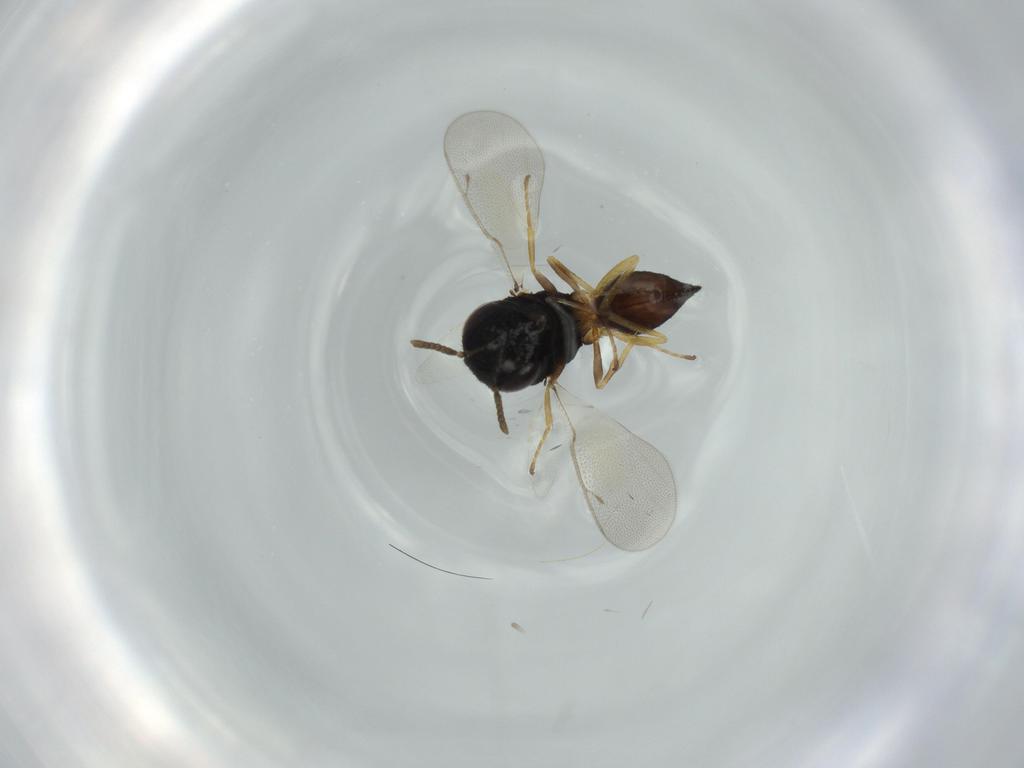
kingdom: Animalia
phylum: Arthropoda
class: Insecta
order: Hymenoptera
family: Pteromalidae
